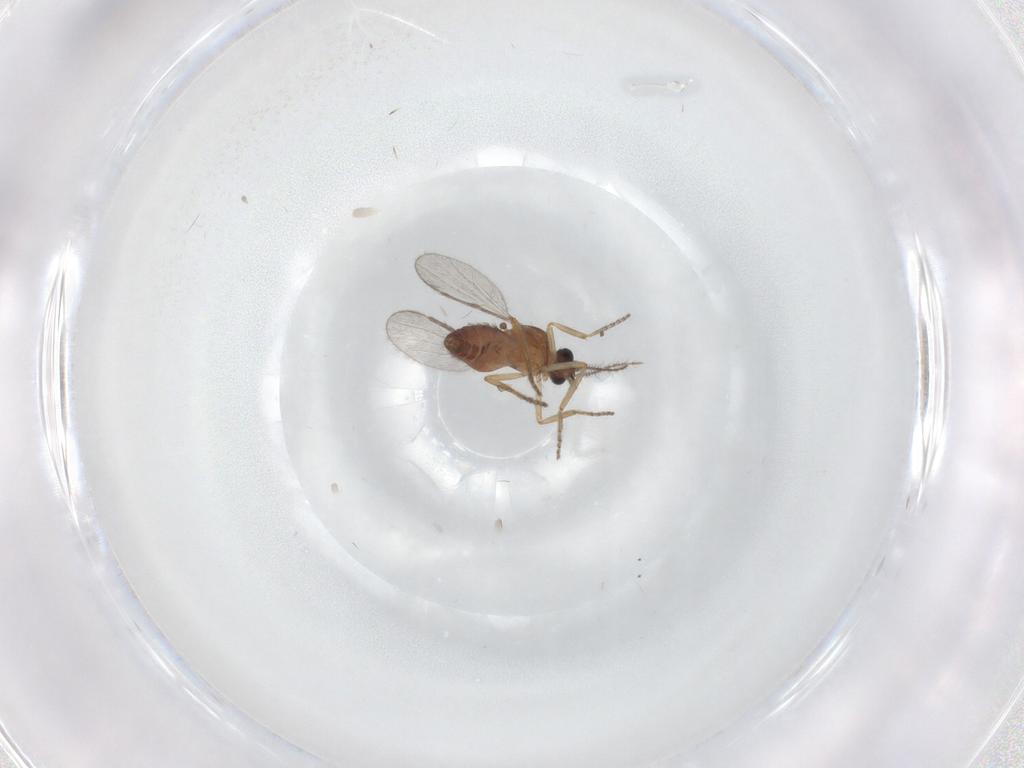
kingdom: Animalia
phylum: Arthropoda
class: Insecta
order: Diptera
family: Ceratopogonidae
